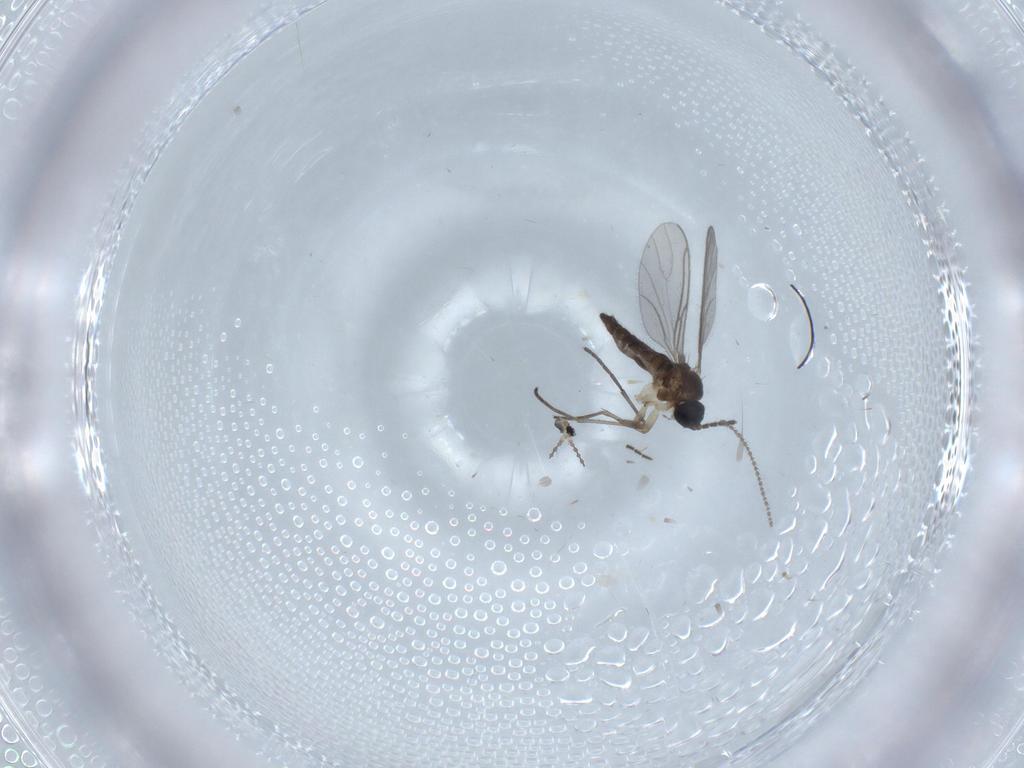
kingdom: Animalia
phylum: Arthropoda
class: Insecta
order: Diptera
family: Sciaridae
